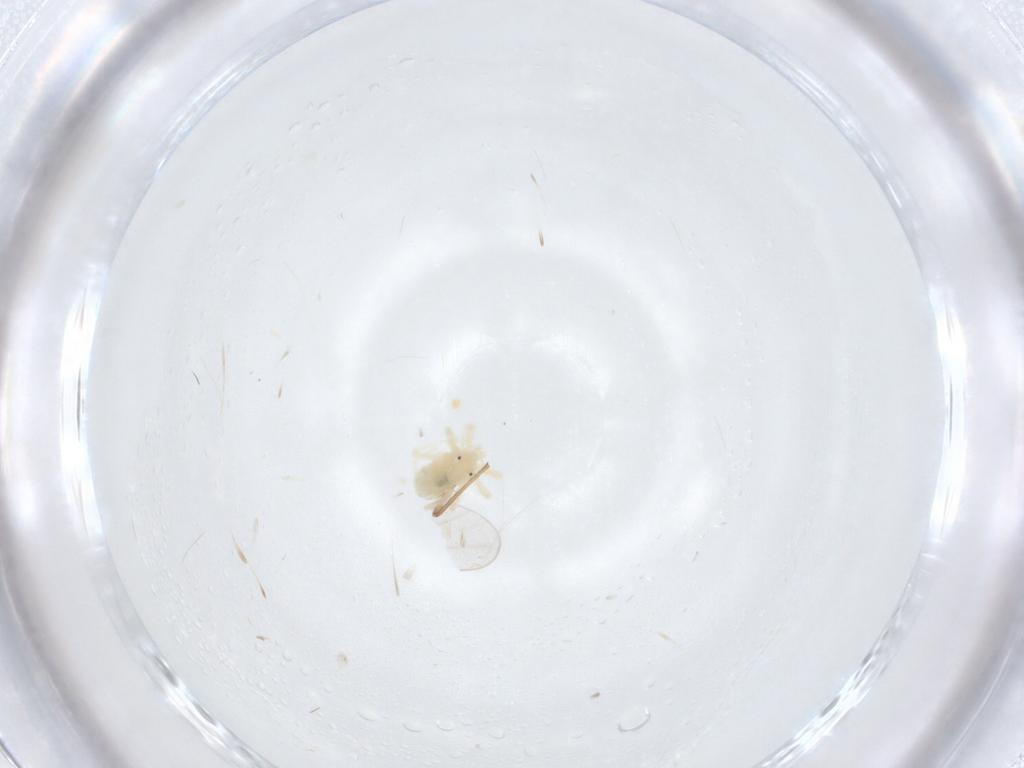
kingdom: Animalia
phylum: Arthropoda
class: Arachnida
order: Trombidiformes
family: Anystidae
